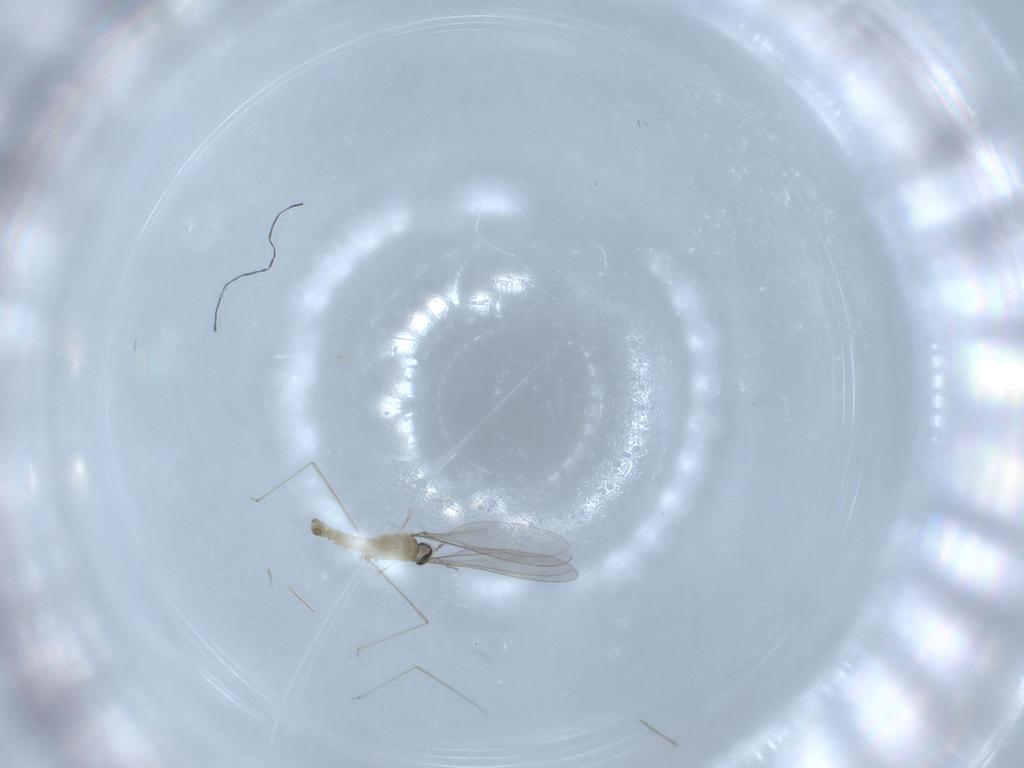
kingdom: Animalia
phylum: Arthropoda
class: Insecta
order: Diptera
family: Cecidomyiidae
